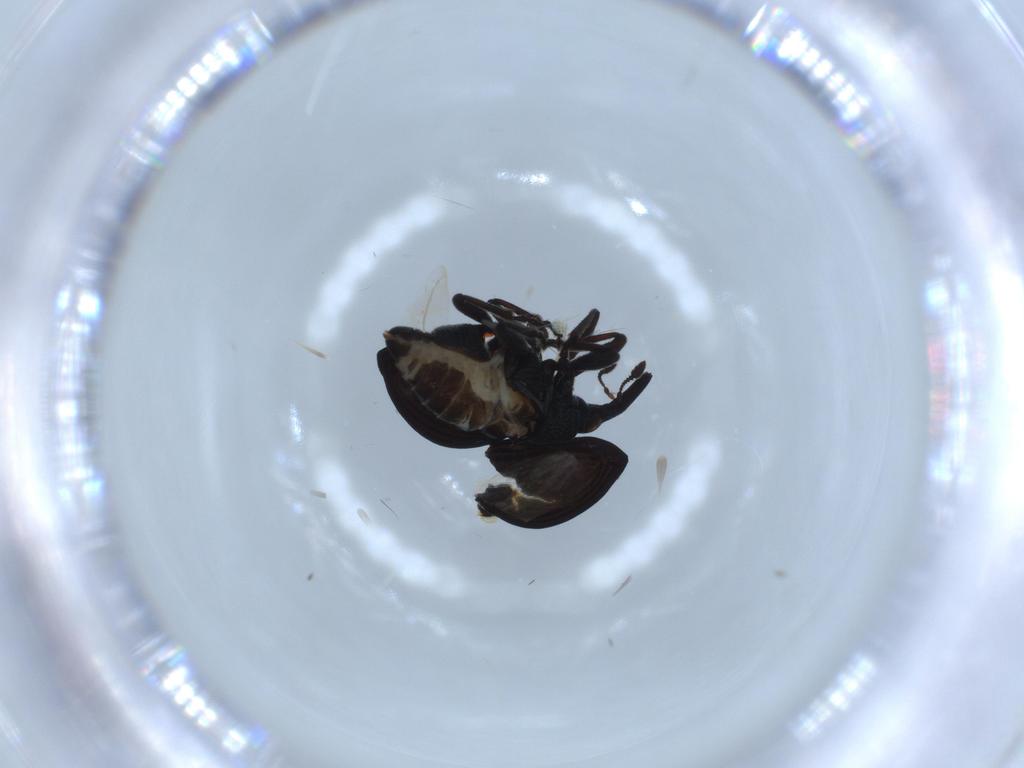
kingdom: Animalia
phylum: Arthropoda
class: Insecta
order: Coleoptera
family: Brentidae
